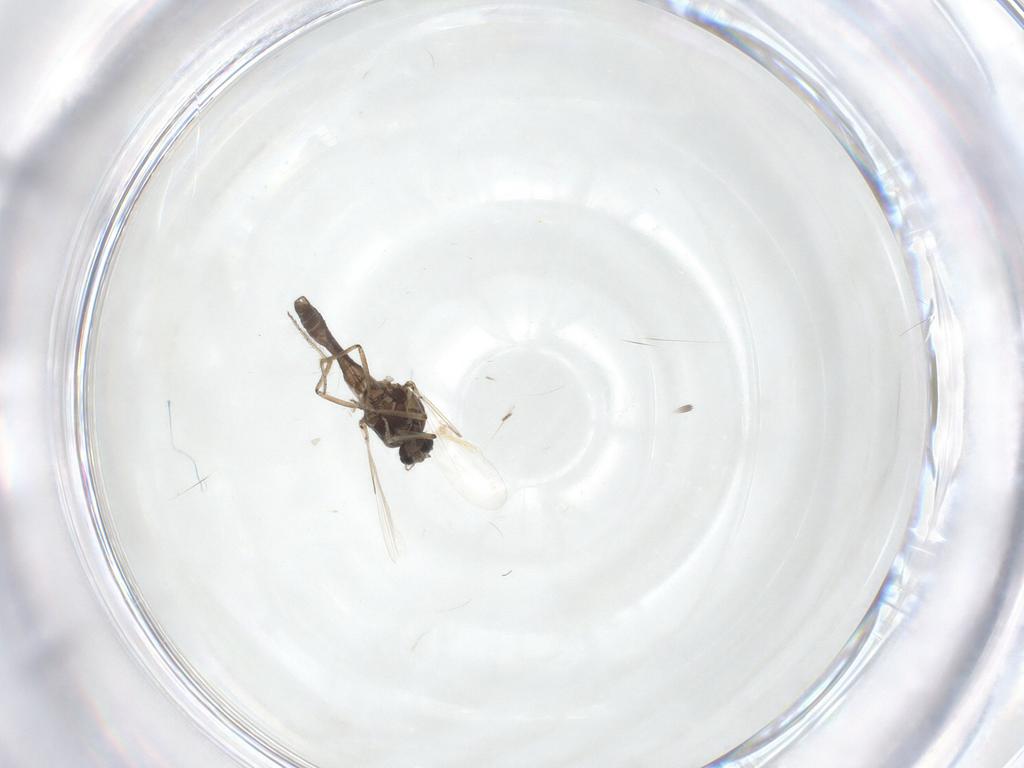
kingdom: Animalia
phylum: Arthropoda
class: Insecta
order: Diptera
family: Ceratopogonidae
